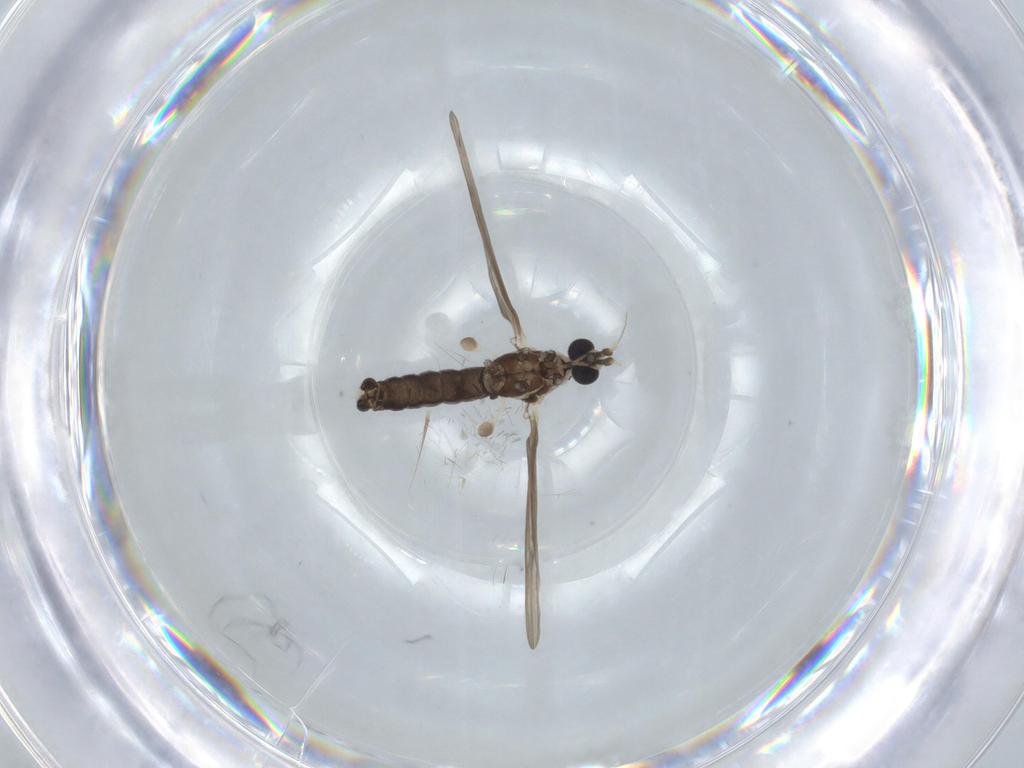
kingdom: Animalia
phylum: Arthropoda
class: Insecta
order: Diptera
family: Limoniidae
